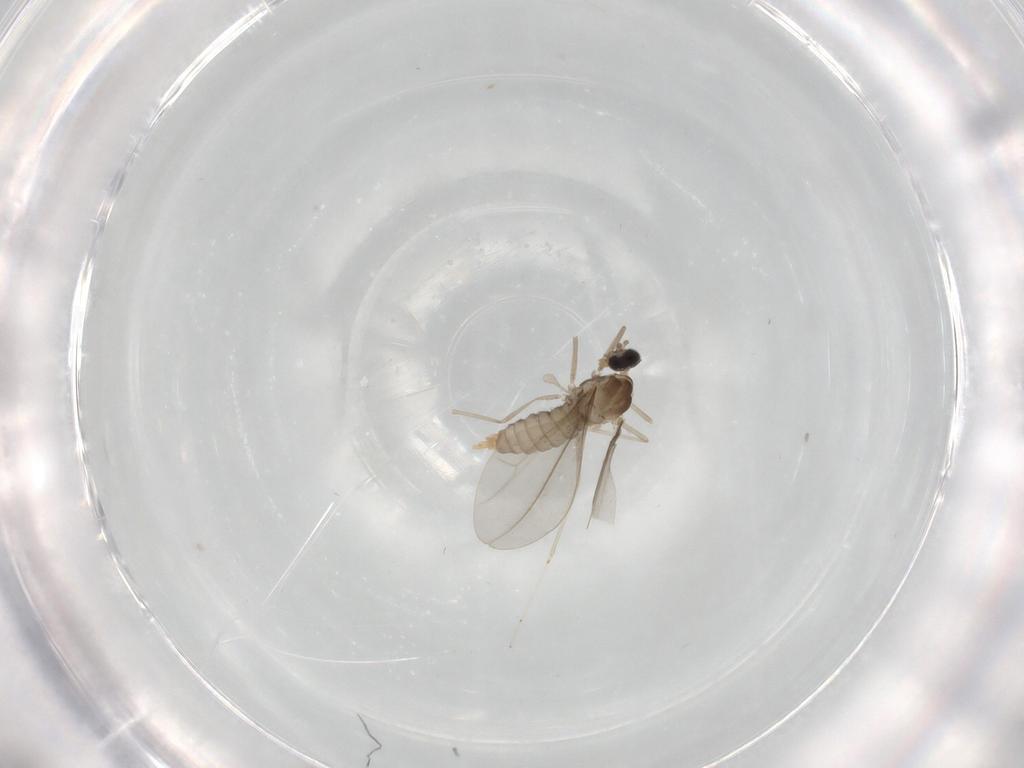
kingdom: Animalia
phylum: Arthropoda
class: Insecta
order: Diptera
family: Cecidomyiidae
